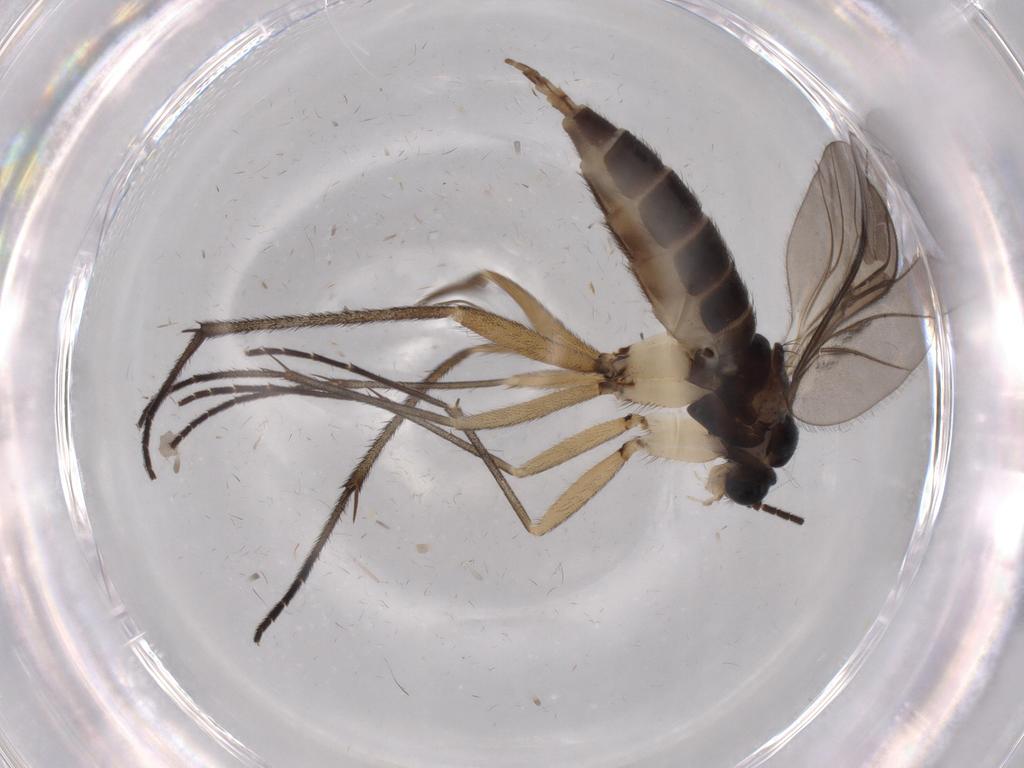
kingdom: Animalia
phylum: Arthropoda
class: Insecta
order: Diptera
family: Sciaridae
